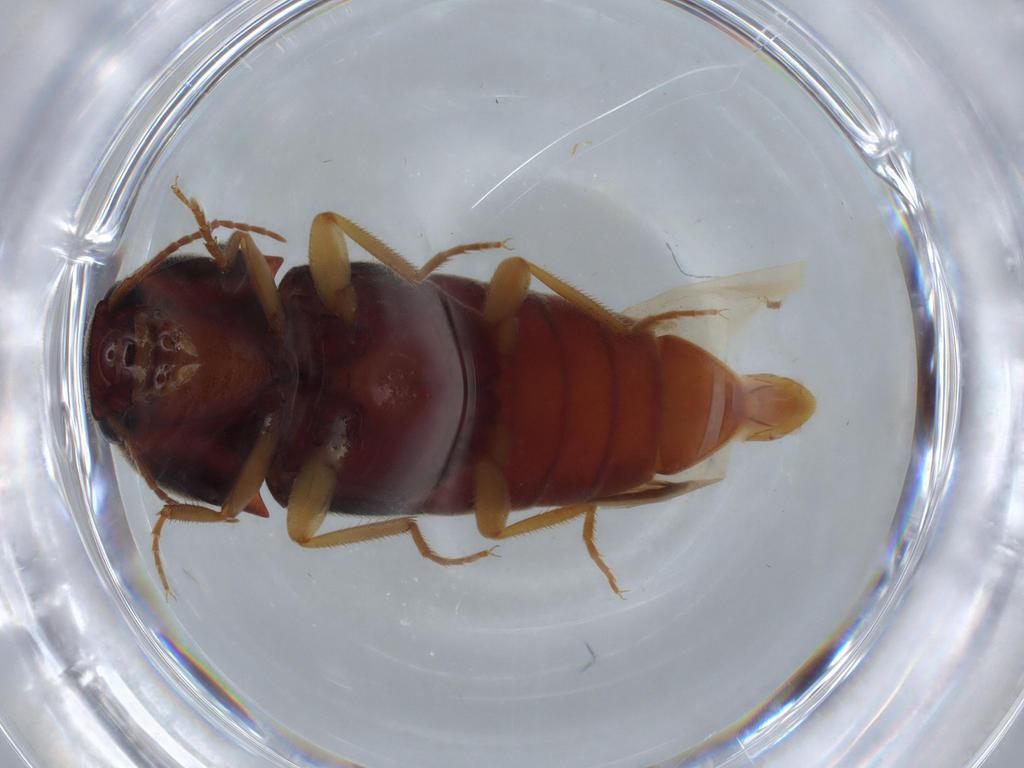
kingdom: Animalia
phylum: Arthropoda
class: Insecta
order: Coleoptera
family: Elateridae
